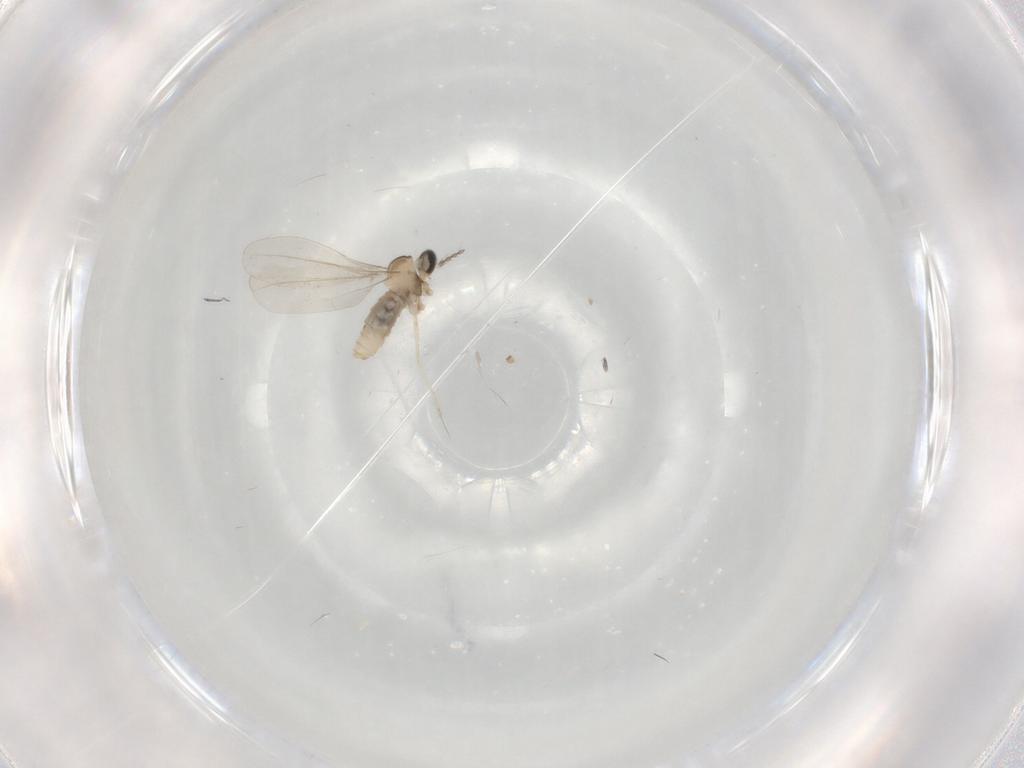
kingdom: Animalia
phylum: Arthropoda
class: Insecta
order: Diptera
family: Cecidomyiidae
